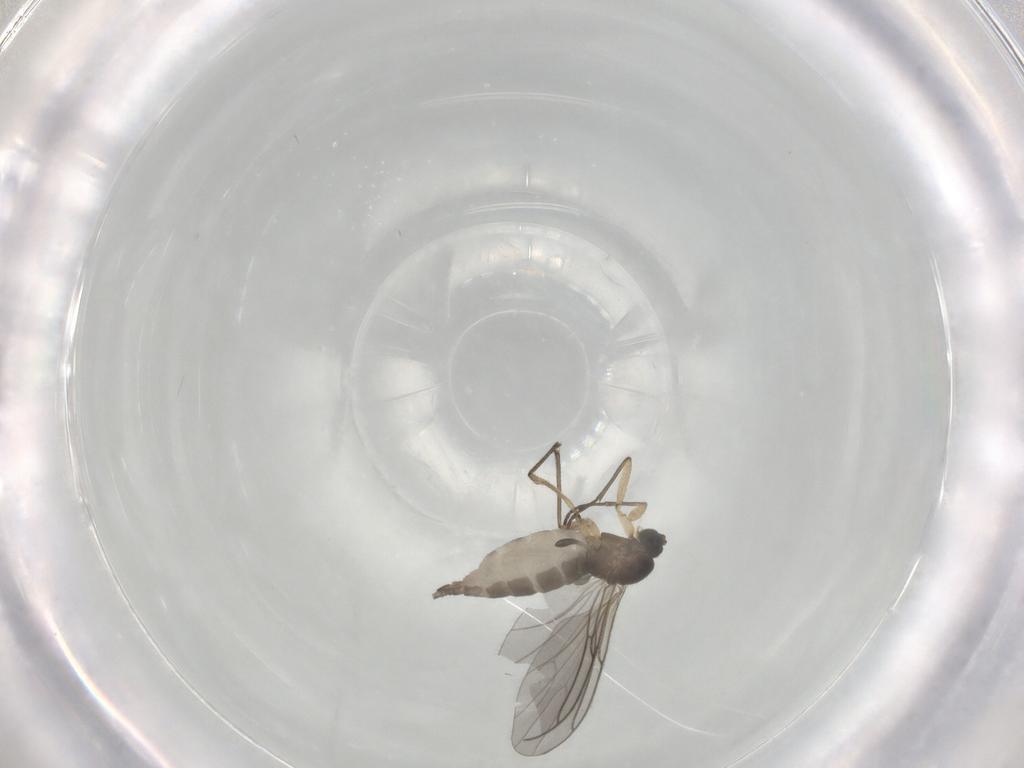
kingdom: Animalia
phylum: Arthropoda
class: Insecta
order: Diptera
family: Sciaridae
